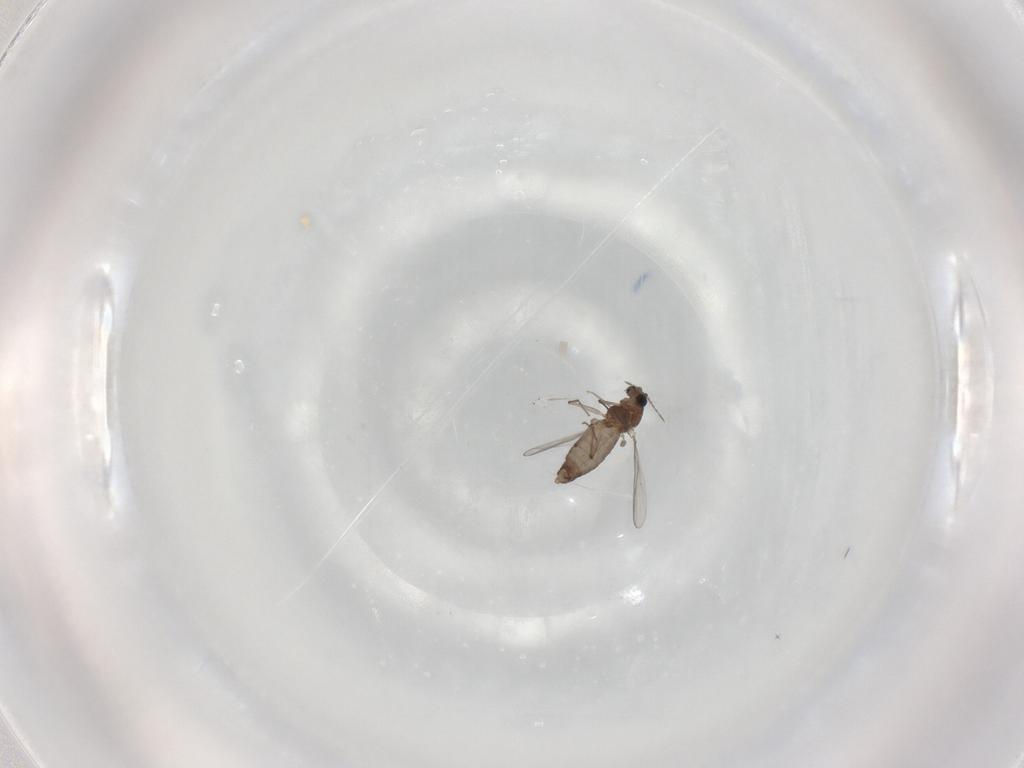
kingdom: Animalia
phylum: Arthropoda
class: Insecta
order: Diptera
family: Chironomidae
